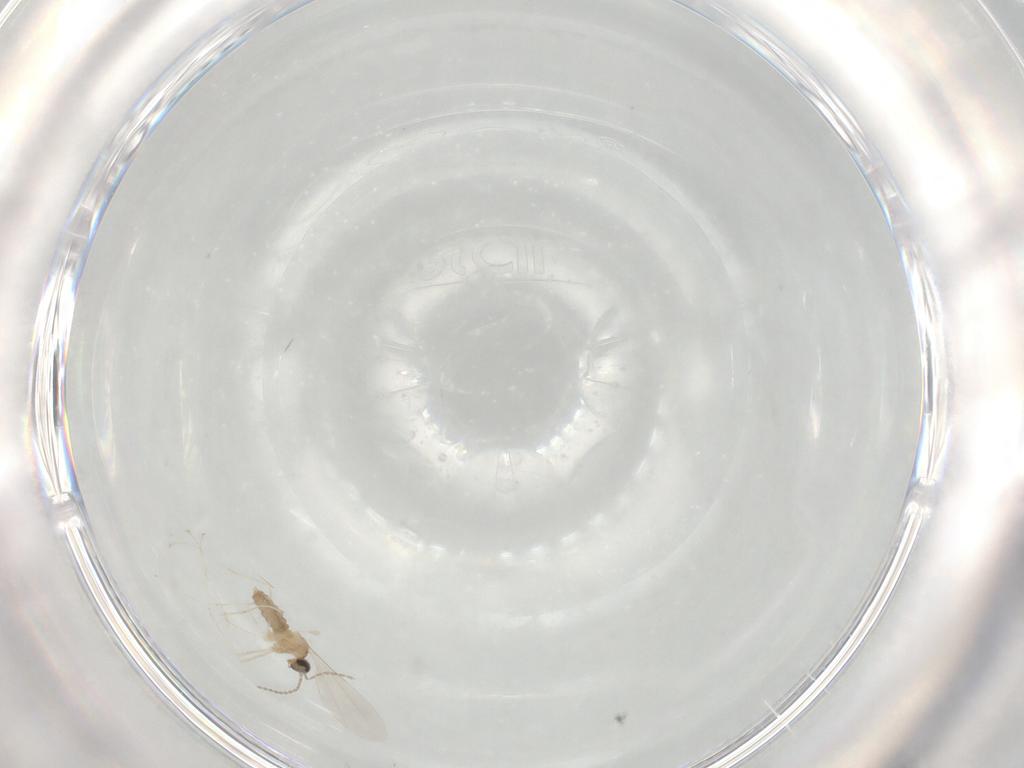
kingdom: Animalia
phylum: Arthropoda
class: Insecta
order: Diptera
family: Cecidomyiidae
